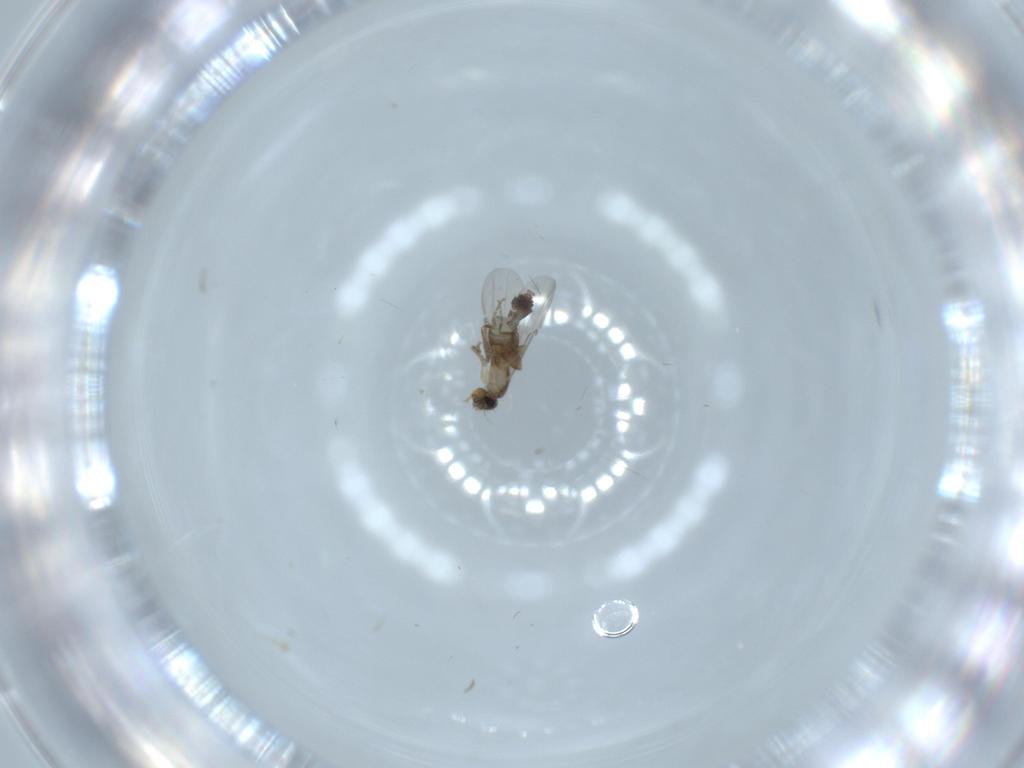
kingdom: Animalia
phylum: Arthropoda
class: Insecta
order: Diptera
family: Phoridae
